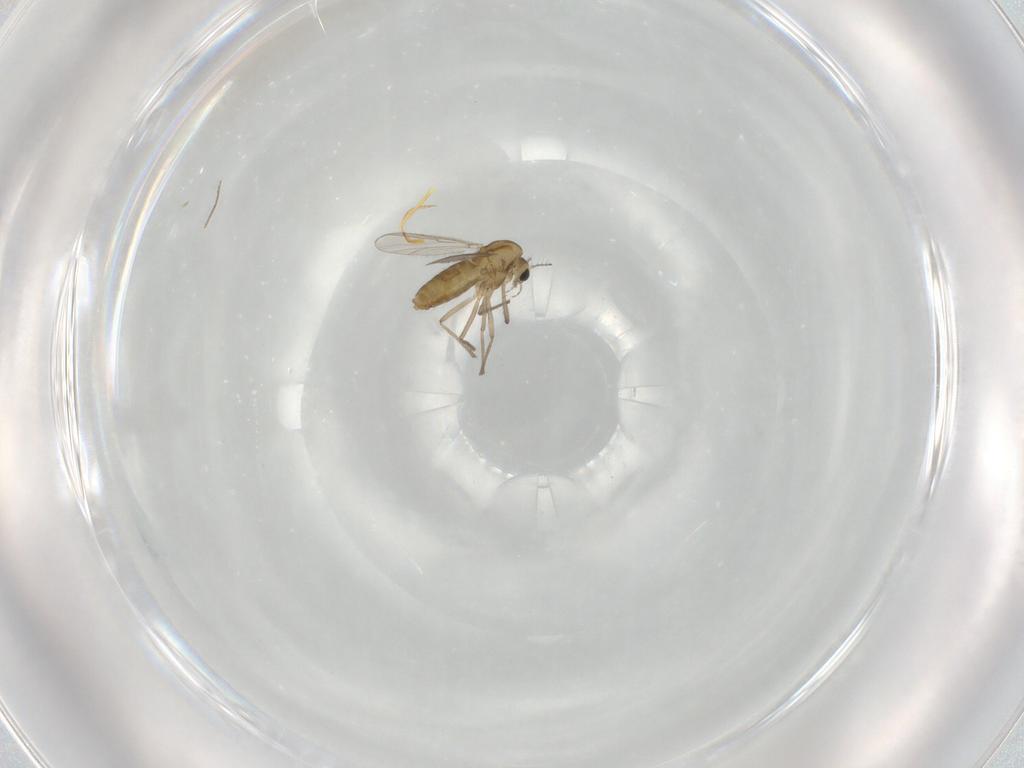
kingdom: Animalia
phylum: Arthropoda
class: Insecta
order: Diptera
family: Chironomidae
